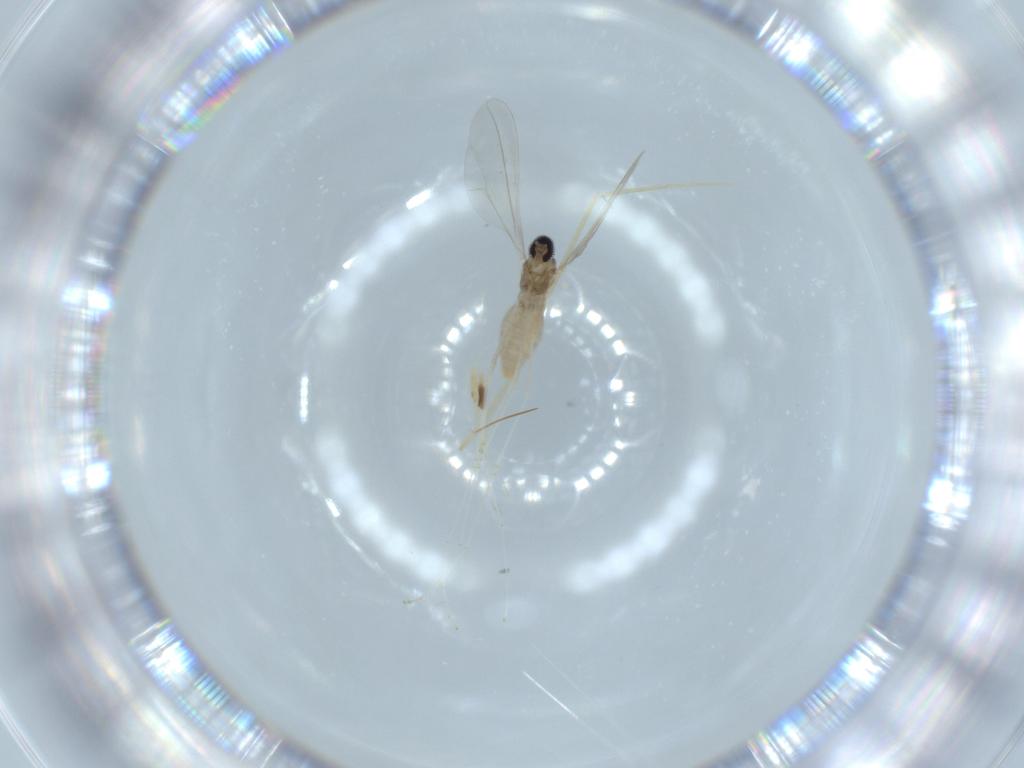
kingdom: Animalia
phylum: Arthropoda
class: Insecta
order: Diptera
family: Cecidomyiidae
